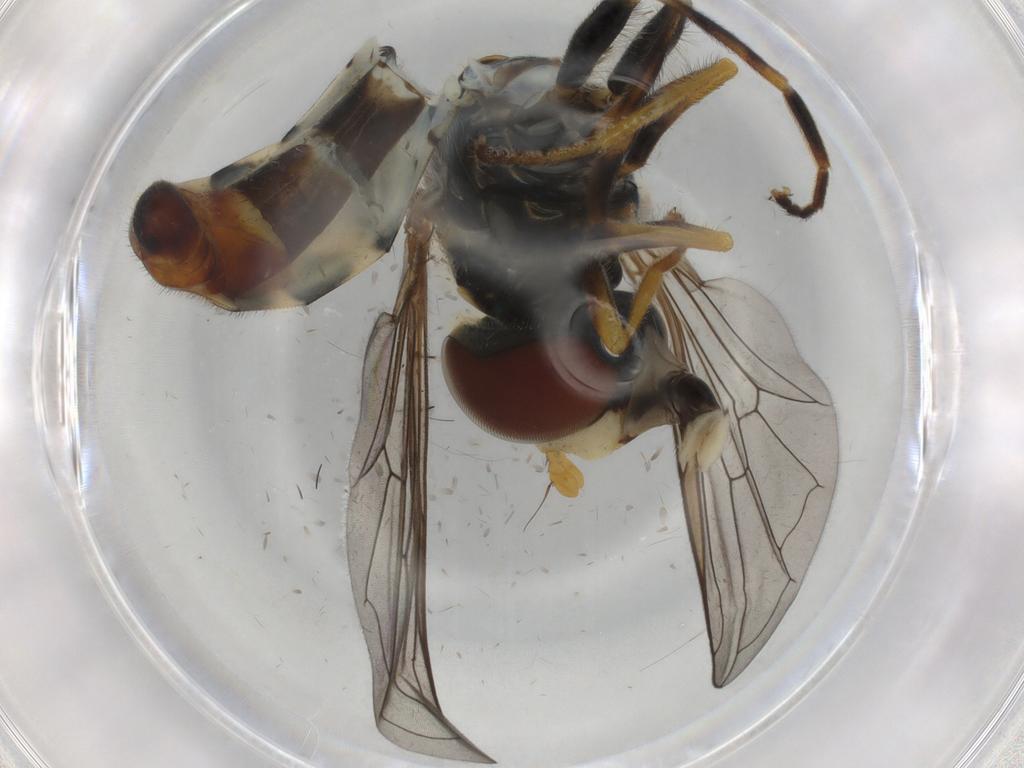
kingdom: Animalia
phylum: Arthropoda
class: Insecta
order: Diptera
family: Syrphidae
